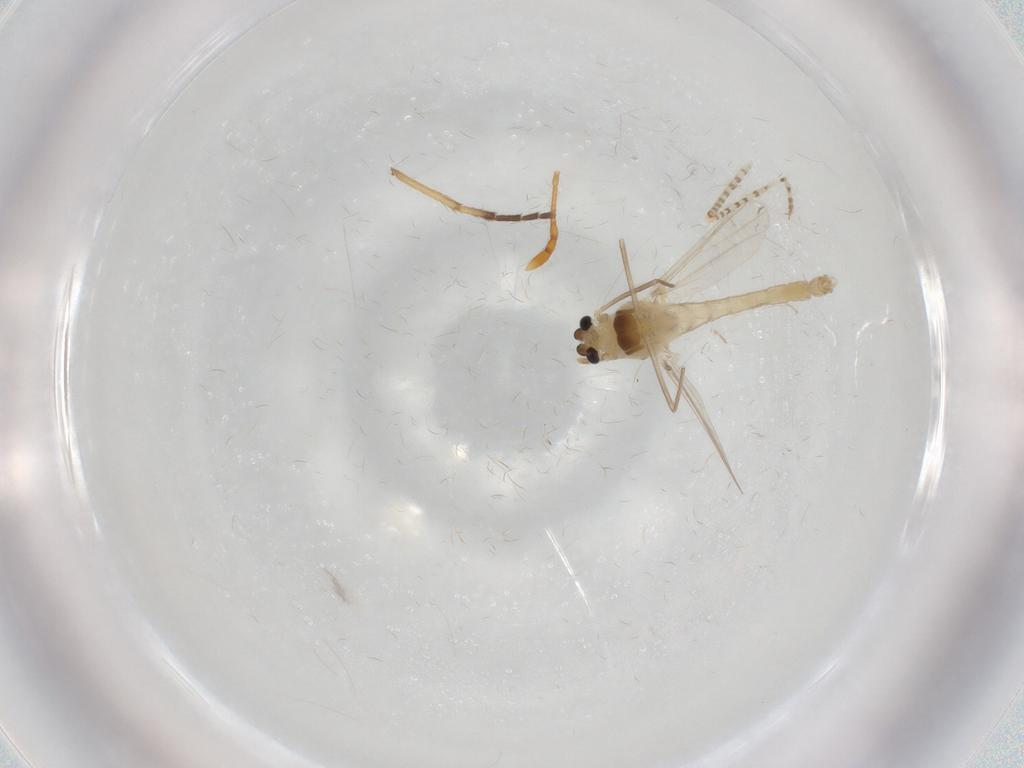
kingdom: Animalia
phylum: Arthropoda
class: Insecta
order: Diptera
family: Chironomidae
